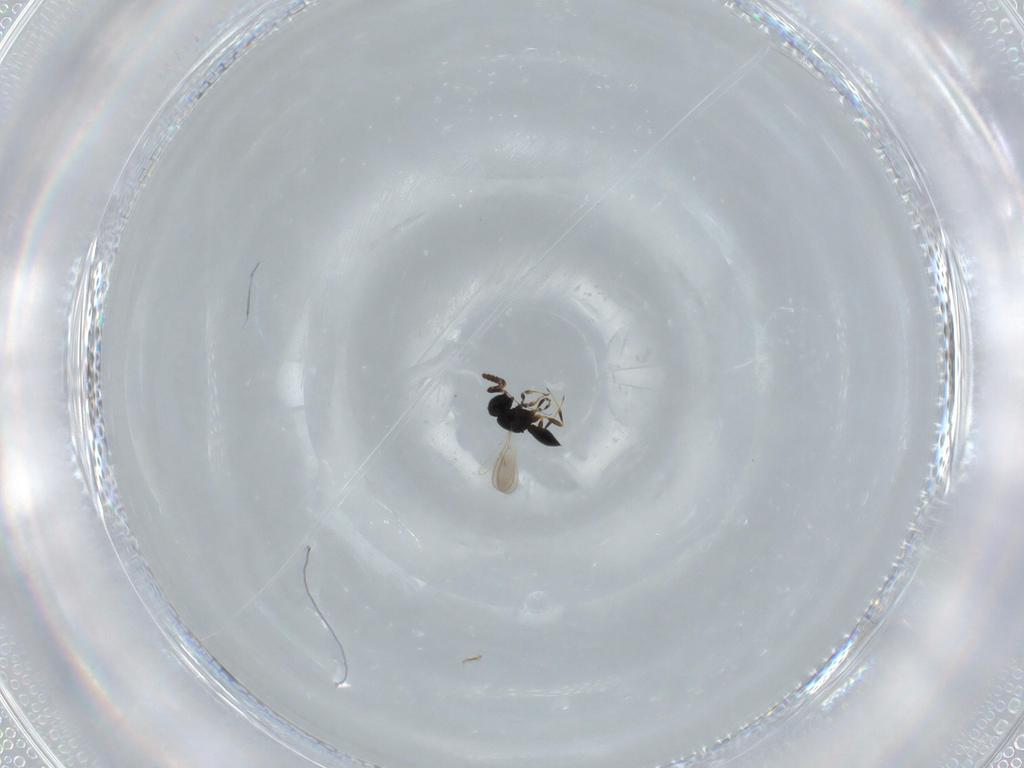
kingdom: Animalia
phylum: Arthropoda
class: Insecta
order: Hymenoptera
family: Scelionidae
